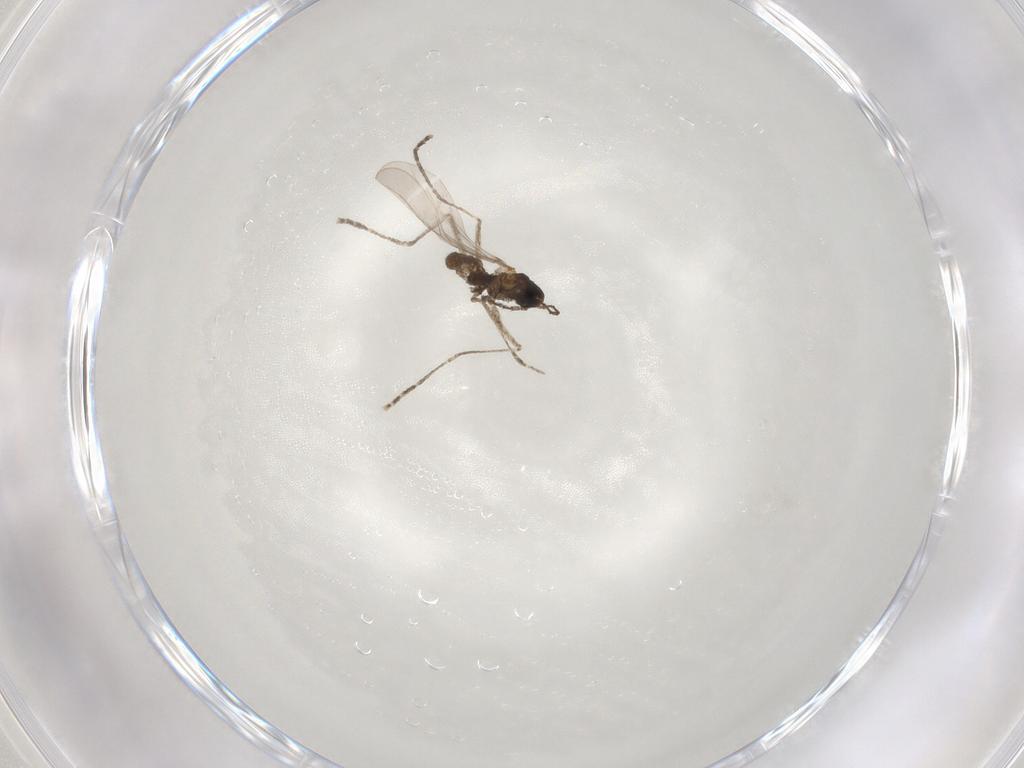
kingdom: Animalia
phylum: Arthropoda
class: Insecta
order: Diptera
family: Cecidomyiidae
